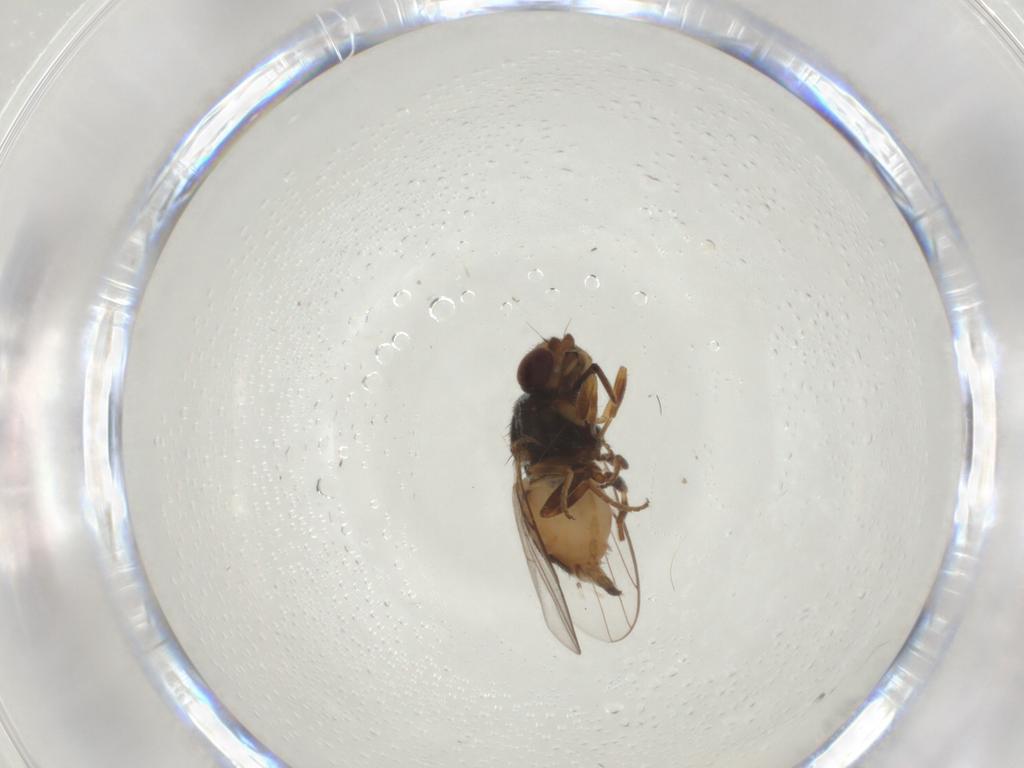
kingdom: Animalia
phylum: Arthropoda
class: Insecta
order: Diptera
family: Chloropidae
